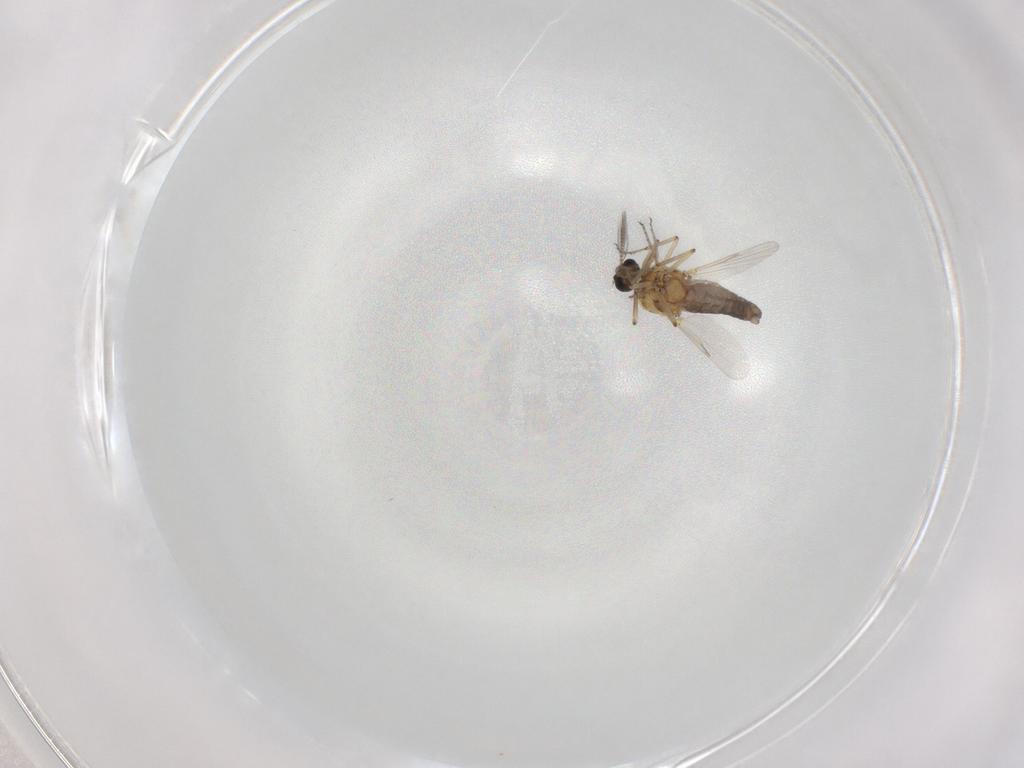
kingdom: Animalia
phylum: Arthropoda
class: Insecta
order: Diptera
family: Ceratopogonidae
